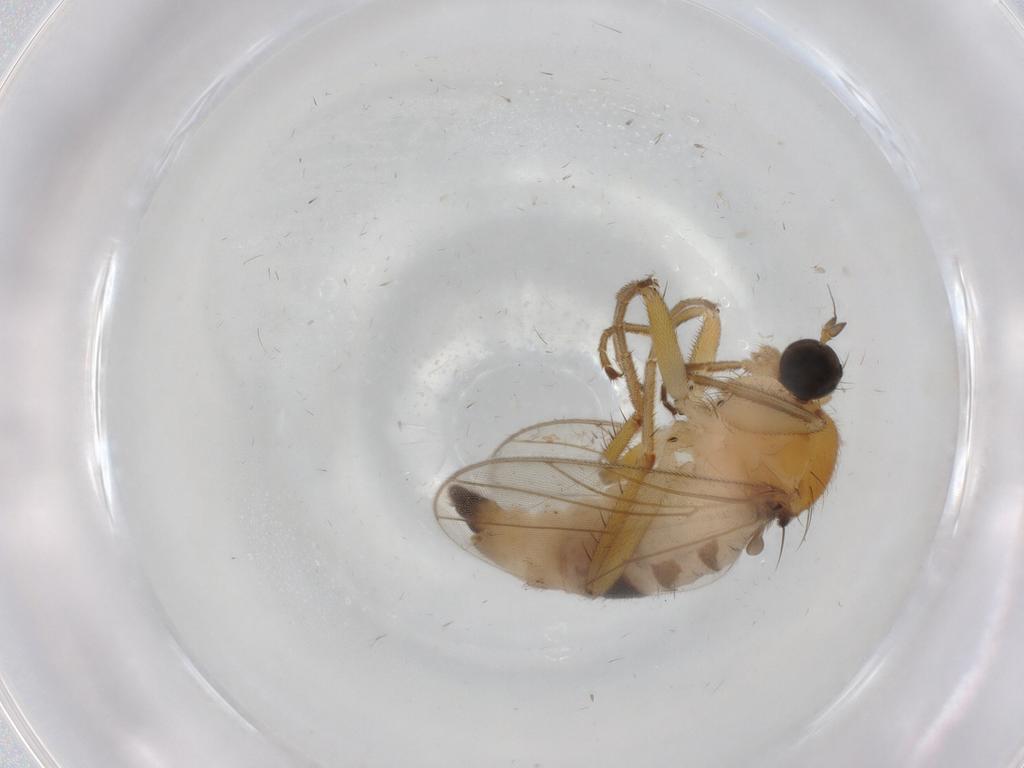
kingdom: Animalia
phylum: Arthropoda
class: Insecta
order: Diptera
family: Hybotidae
